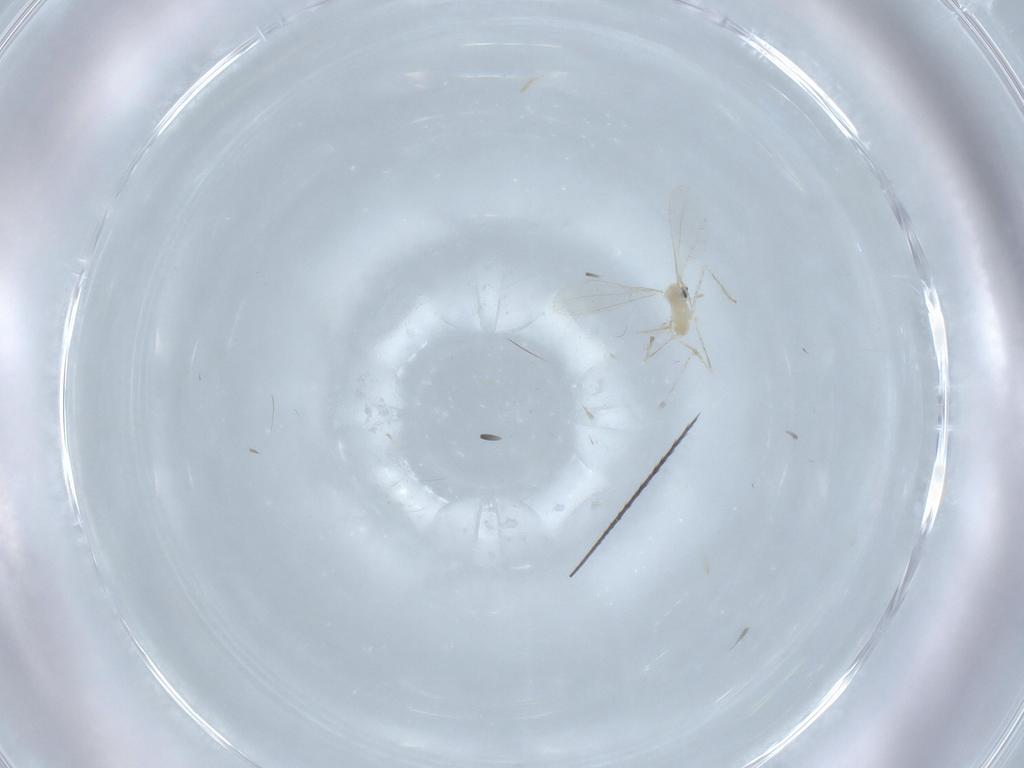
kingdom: Animalia
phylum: Arthropoda
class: Insecta
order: Diptera
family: Cecidomyiidae
